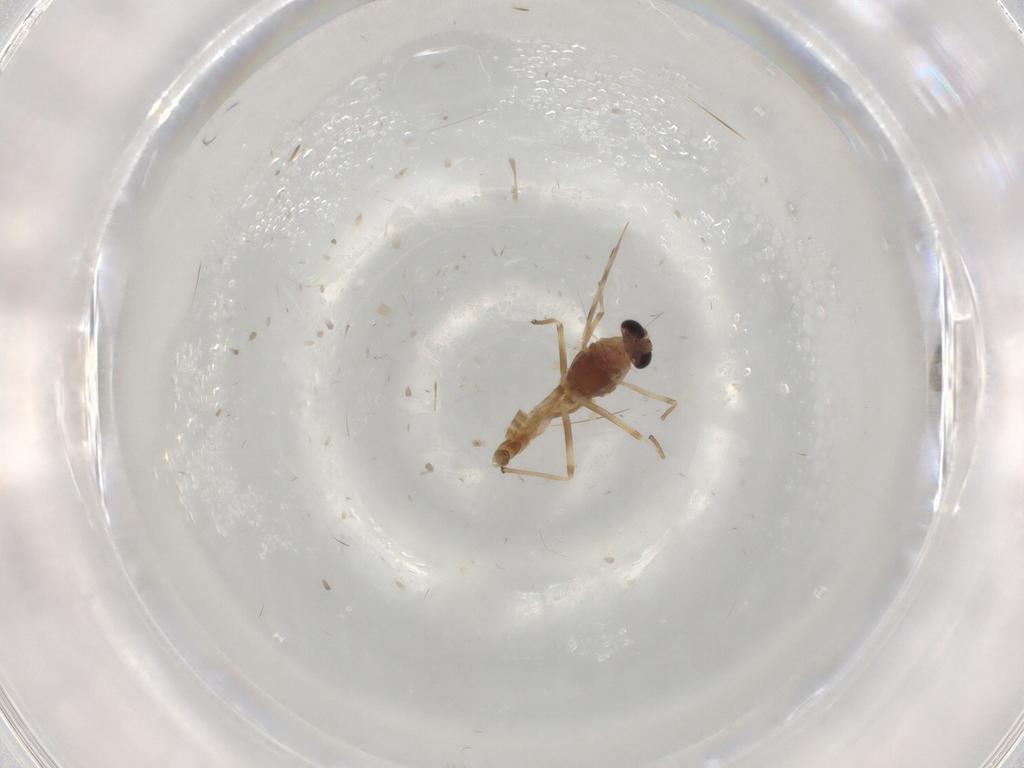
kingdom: Animalia
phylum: Arthropoda
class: Insecta
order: Diptera
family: Chironomidae
